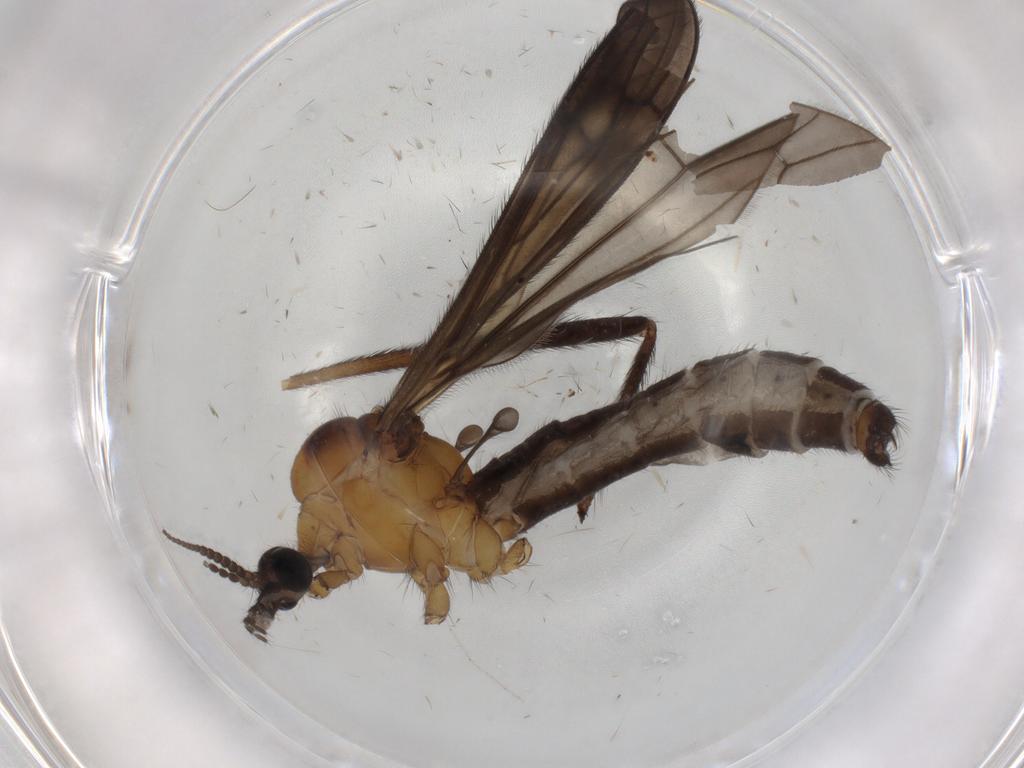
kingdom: Animalia
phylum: Arthropoda
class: Insecta
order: Diptera
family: Limoniidae
